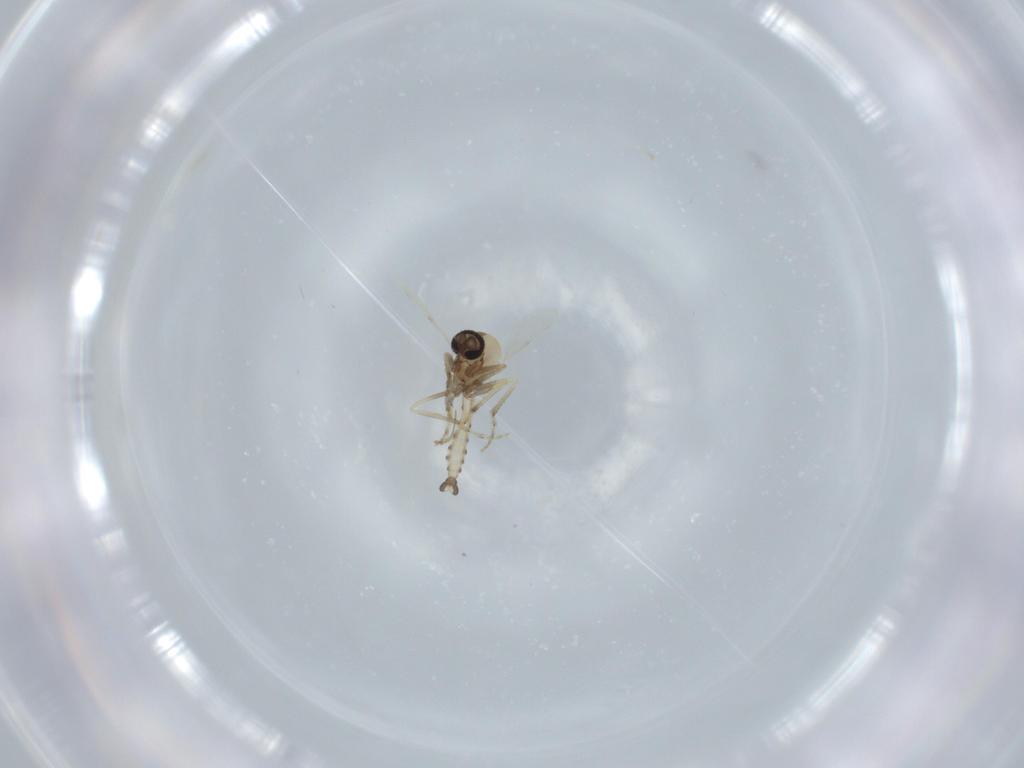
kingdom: Animalia
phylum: Arthropoda
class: Insecta
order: Diptera
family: Ceratopogonidae
